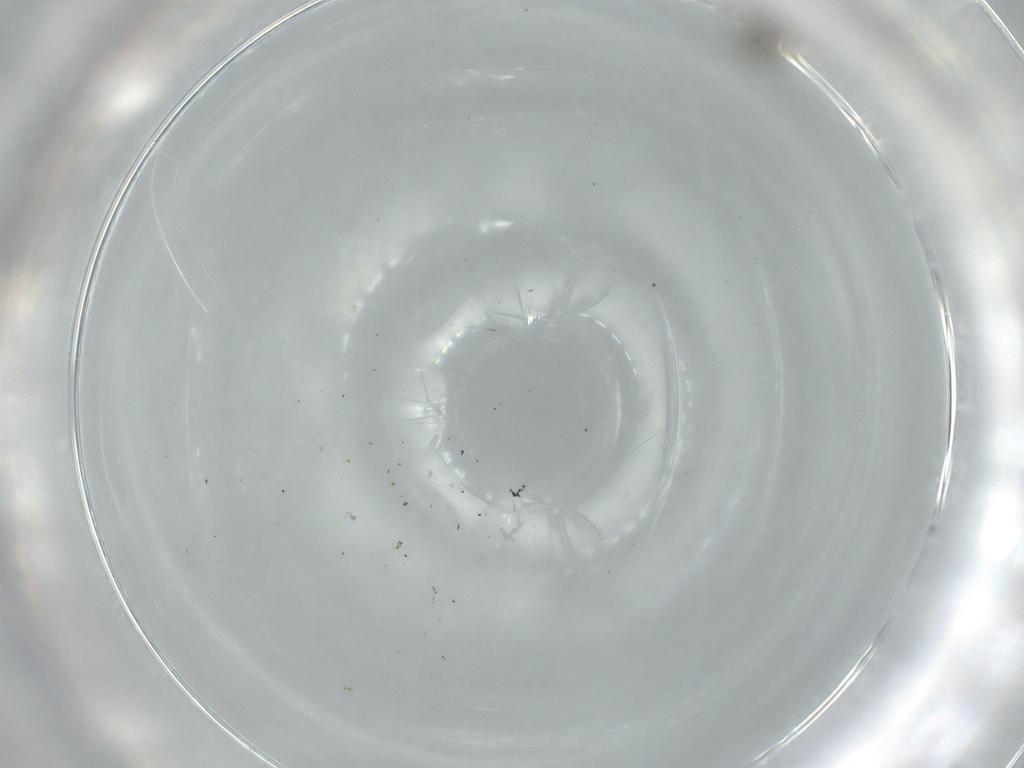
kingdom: Animalia
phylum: Arthropoda
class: Insecta
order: Diptera
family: Cecidomyiidae
